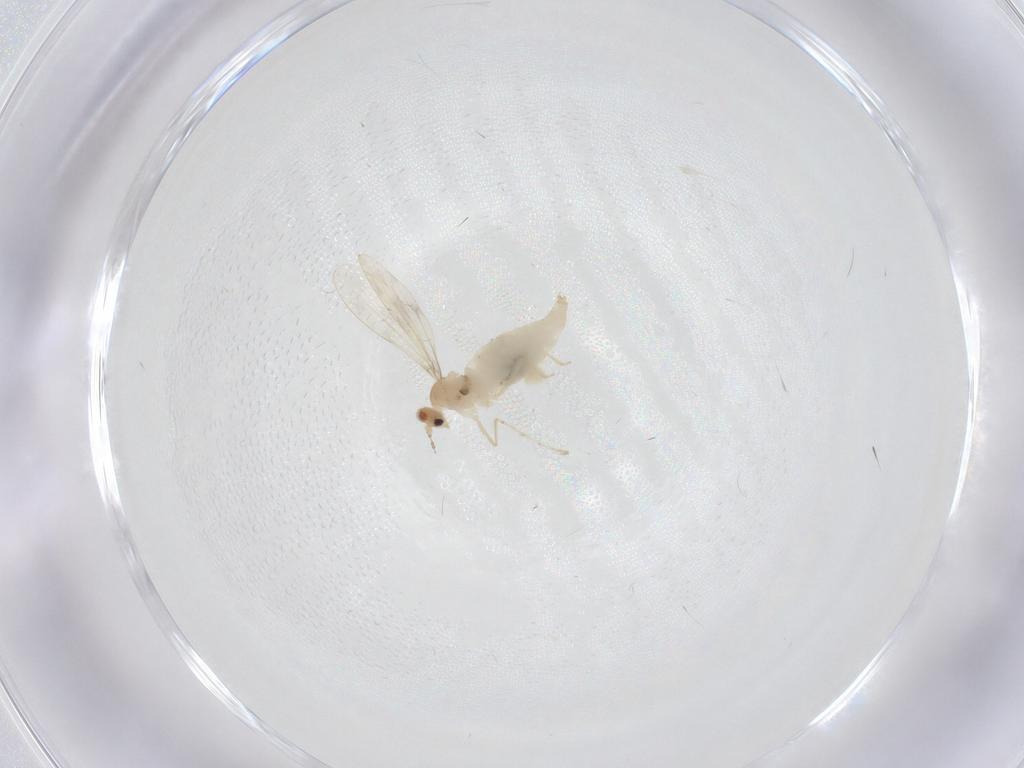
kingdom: Animalia
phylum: Arthropoda
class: Insecta
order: Diptera
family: Cecidomyiidae
